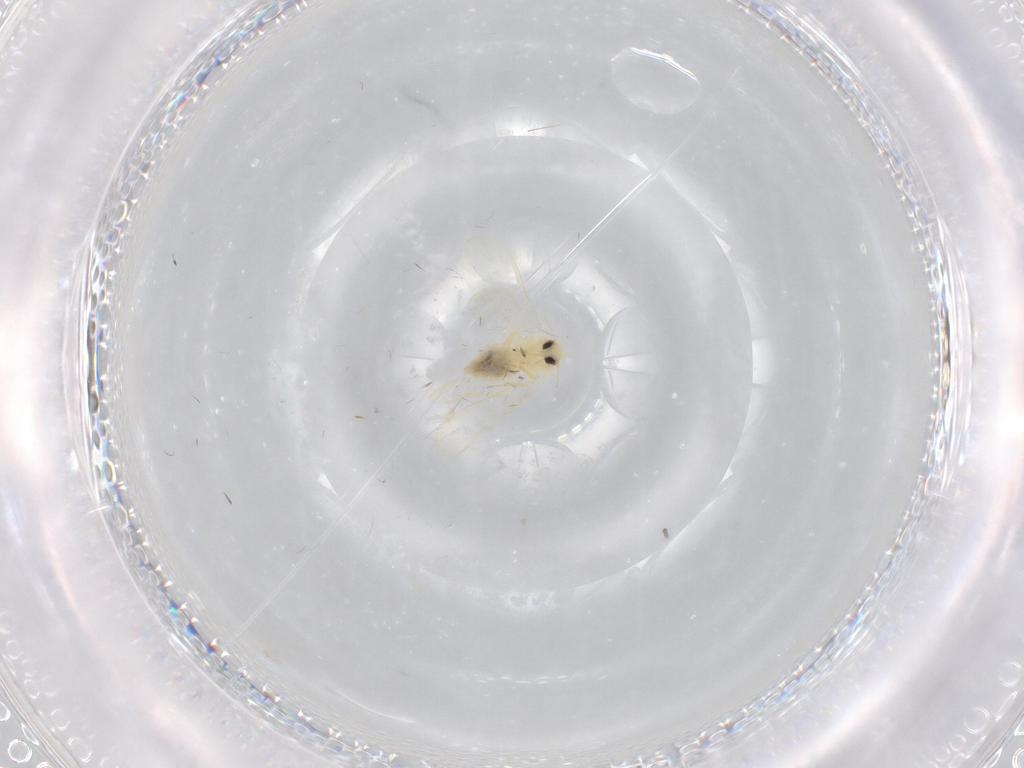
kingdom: Animalia
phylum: Arthropoda
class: Insecta
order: Hemiptera
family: Aleyrodidae
